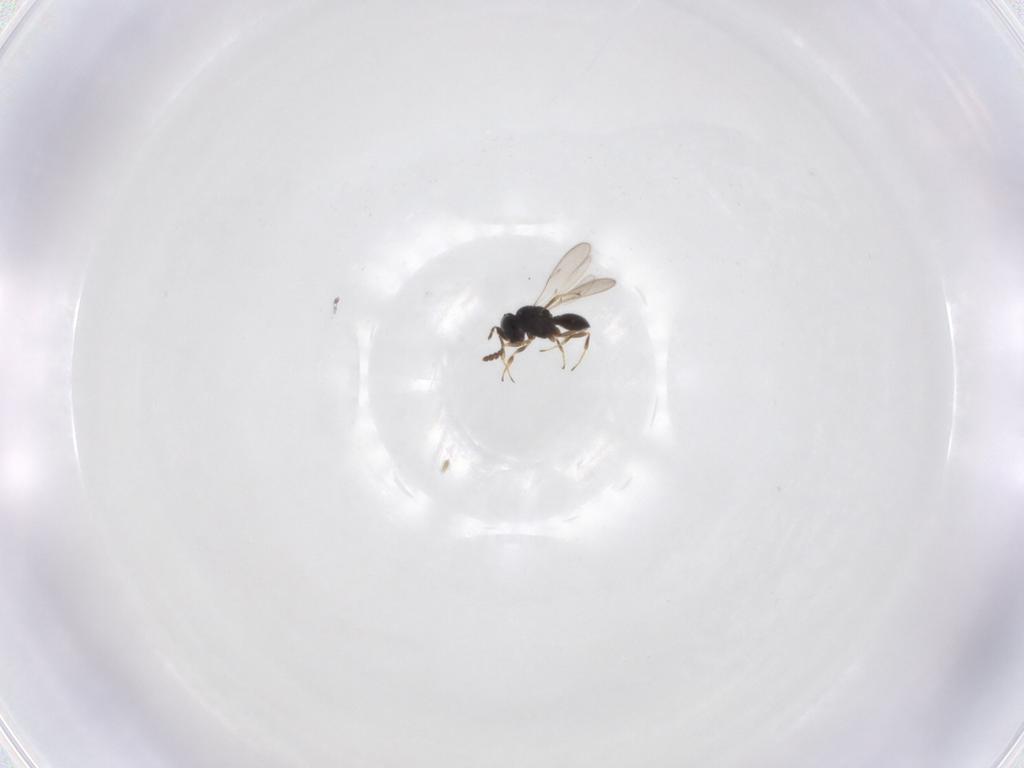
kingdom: Animalia
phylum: Arthropoda
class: Insecta
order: Hymenoptera
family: Scelionidae
